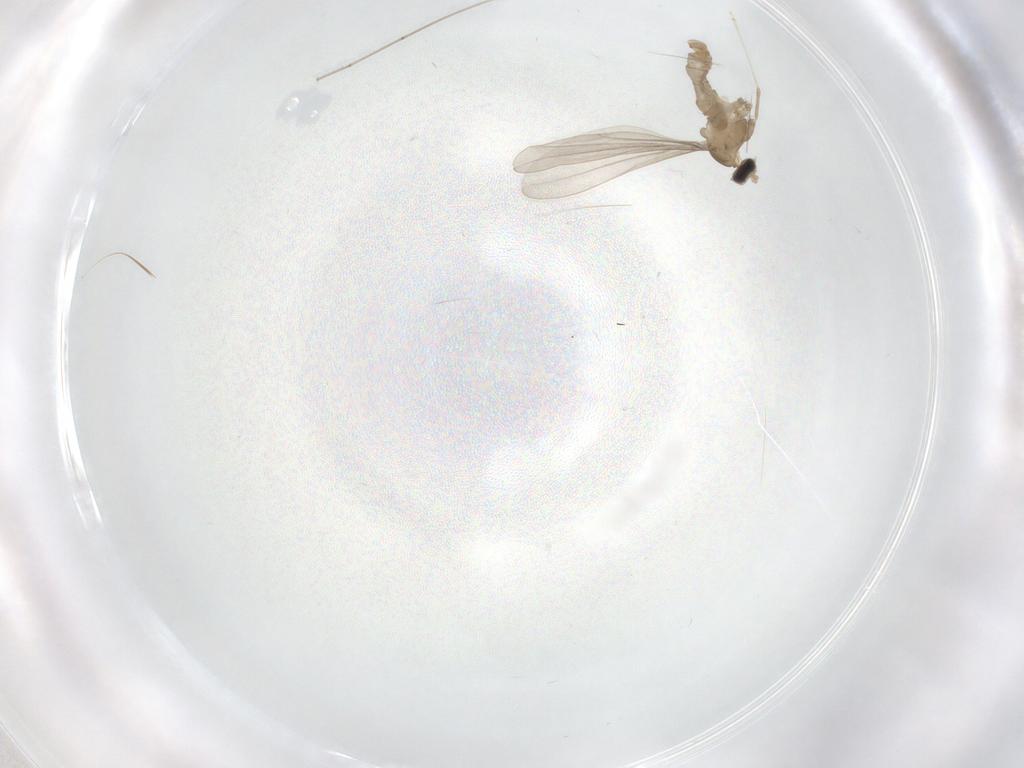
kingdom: Animalia
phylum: Arthropoda
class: Insecta
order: Diptera
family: Cecidomyiidae
